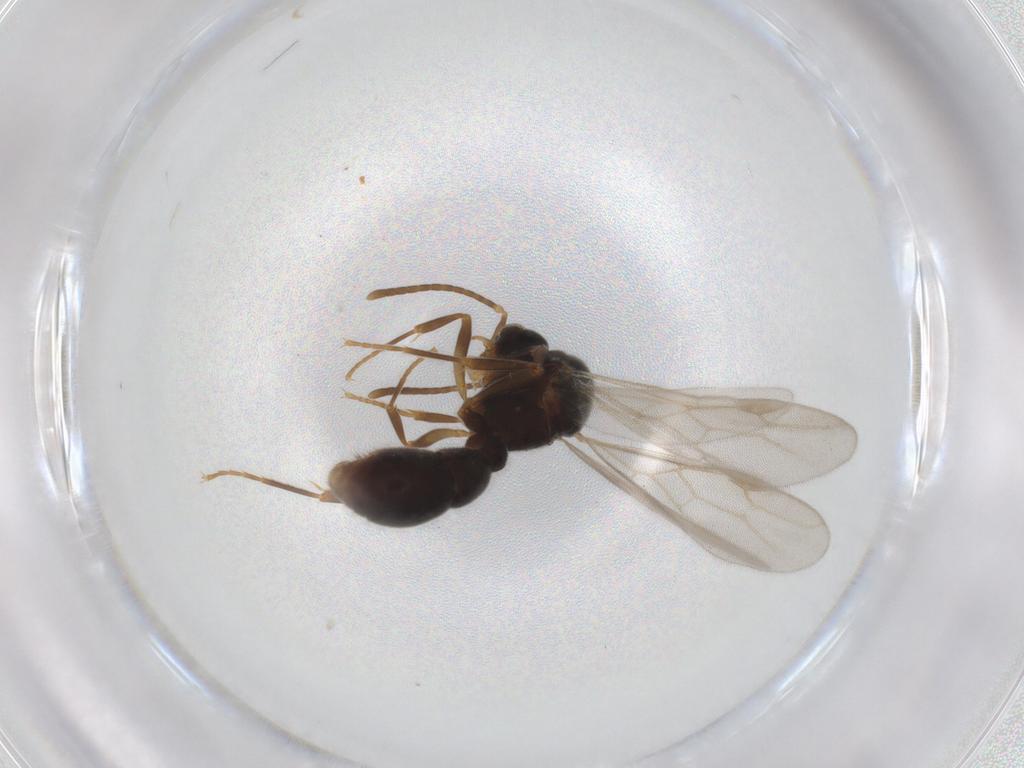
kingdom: Animalia
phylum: Arthropoda
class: Insecta
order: Hymenoptera
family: Formicidae
